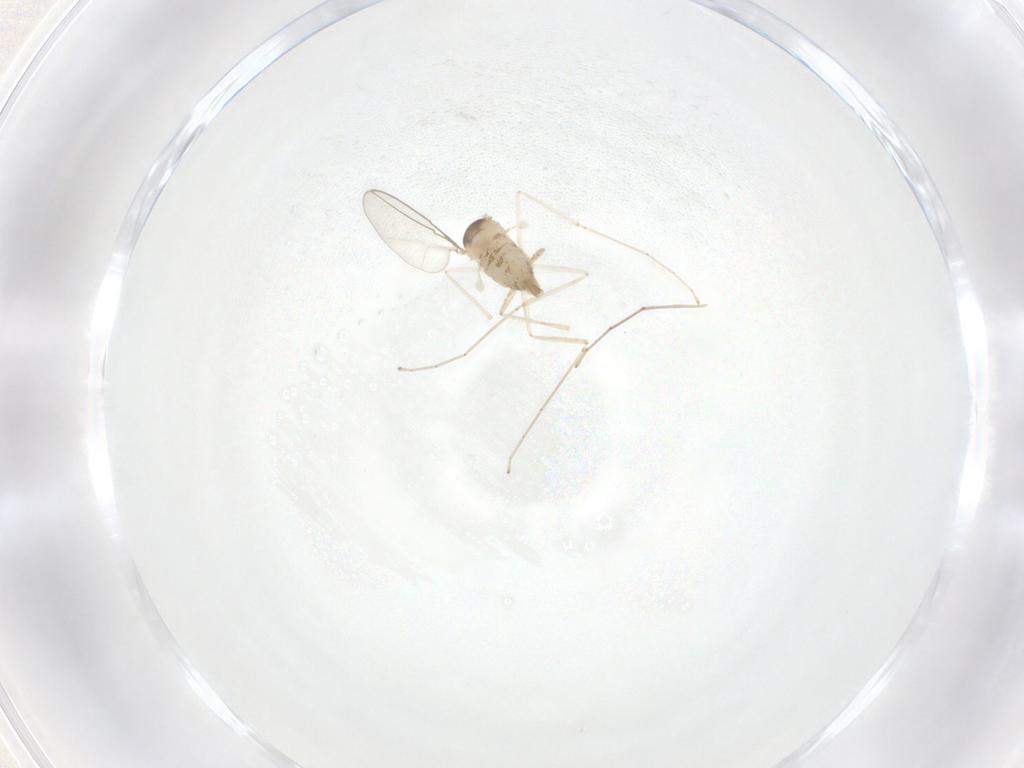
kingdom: Animalia
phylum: Arthropoda
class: Insecta
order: Diptera
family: Cecidomyiidae
